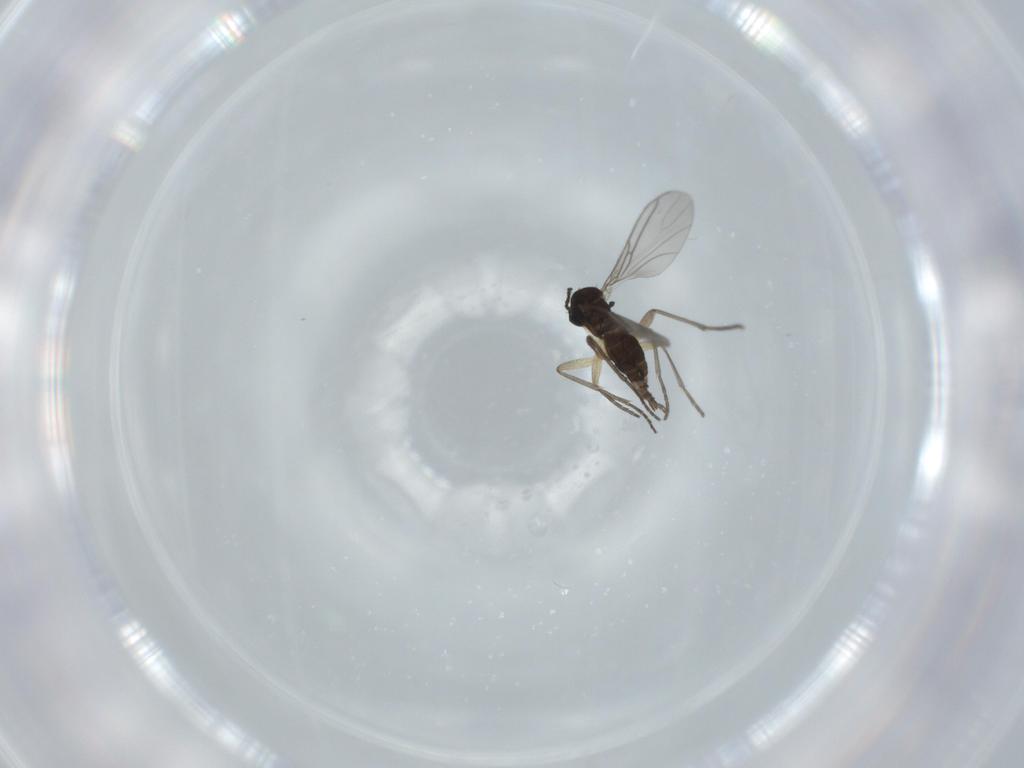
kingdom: Animalia
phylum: Arthropoda
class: Insecta
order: Diptera
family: Sciaridae
